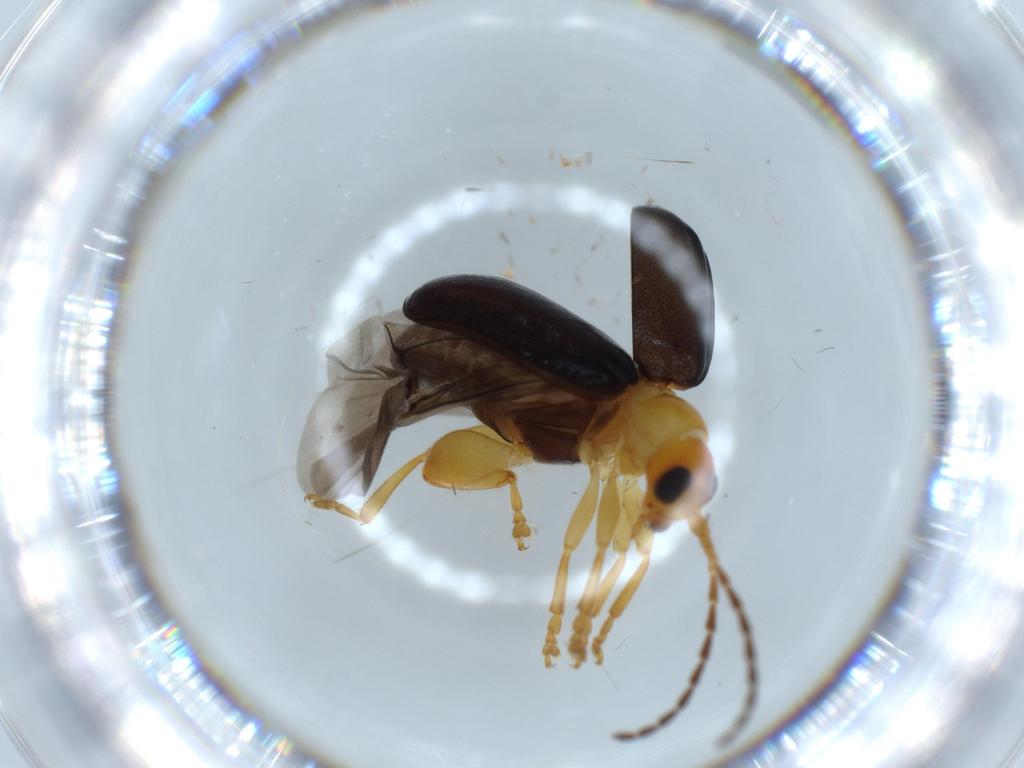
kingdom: Animalia
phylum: Arthropoda
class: Insecta
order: Coleoptera
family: Chrysomelidae
